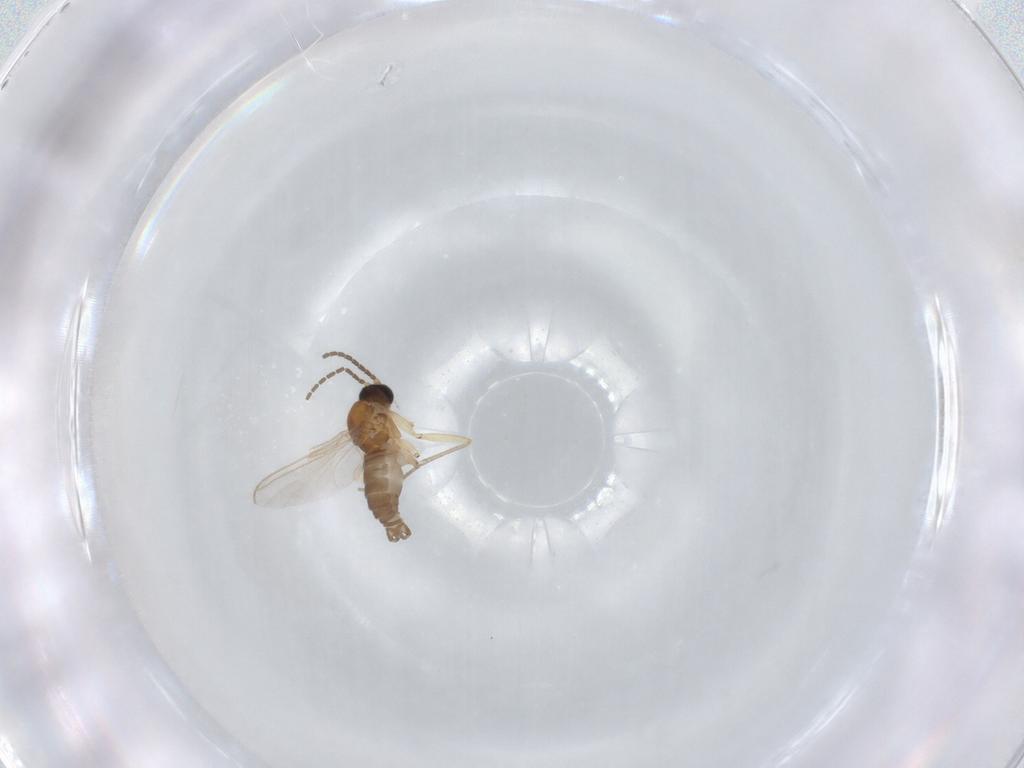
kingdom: Animalia
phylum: Arthropoda
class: Insecta
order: Diptera
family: Sciaridae
